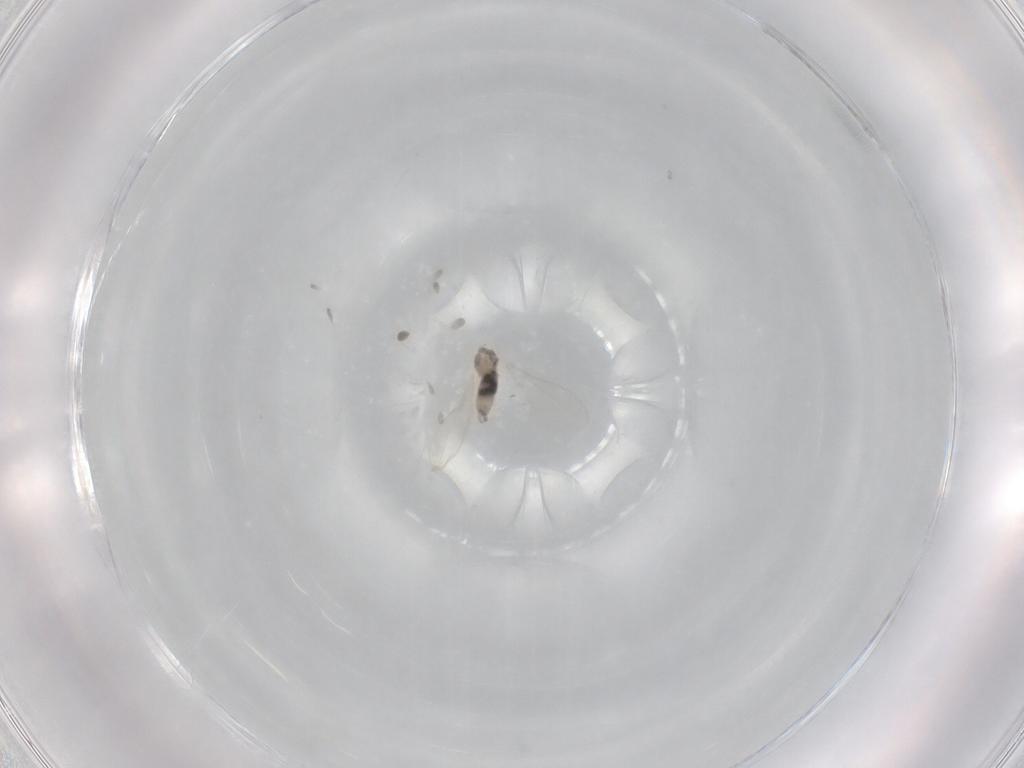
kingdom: Animalia
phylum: Arthropoda
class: Insecta
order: Diptera
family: Cecidomyiidae
